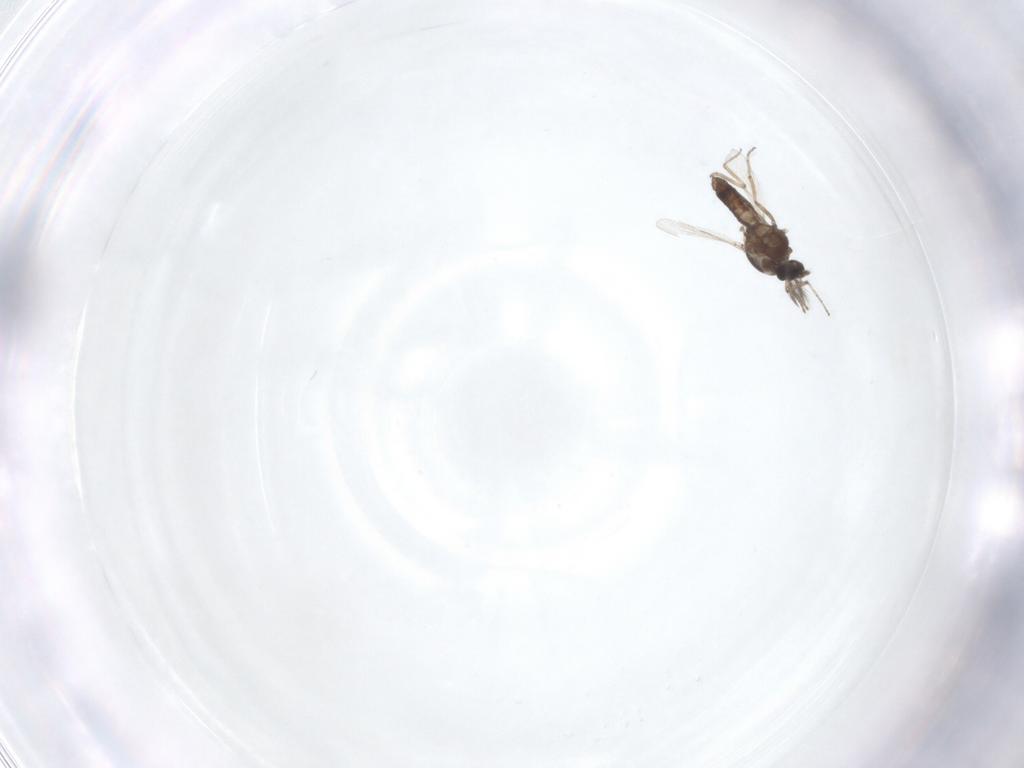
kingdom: Animalia
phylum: Arthropoda
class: Insecta
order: Diptera
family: Ceratopogonidae
